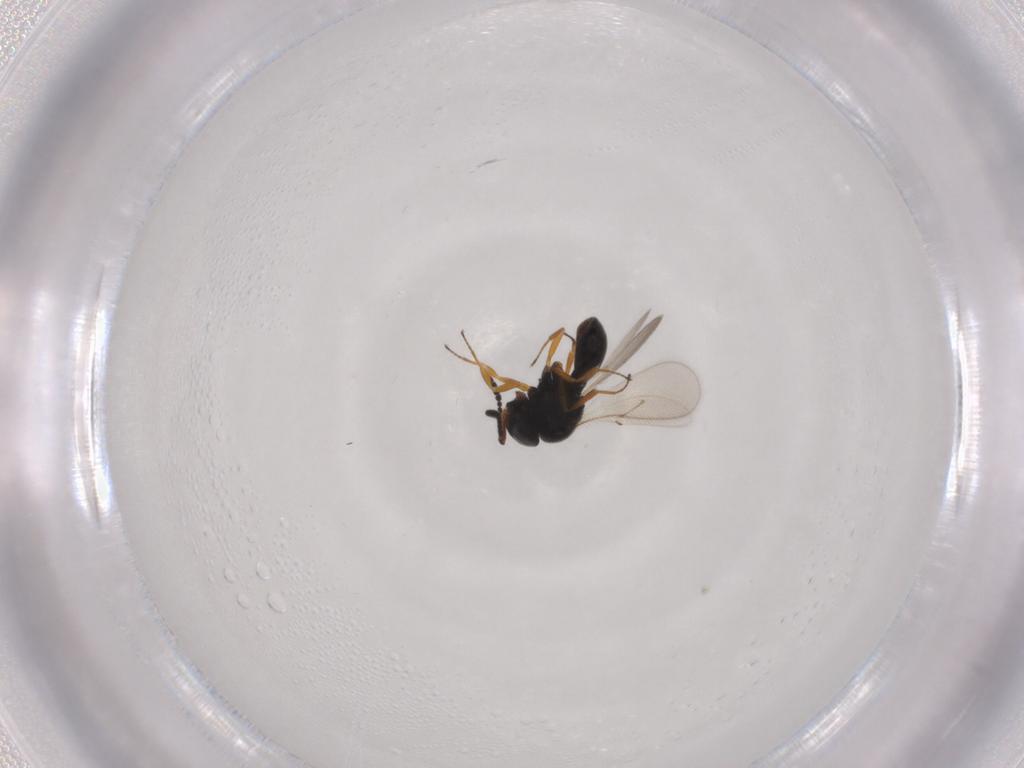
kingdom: Animalia
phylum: Arthropoda
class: Insecta
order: Hymenoptera
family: Scelionidae
